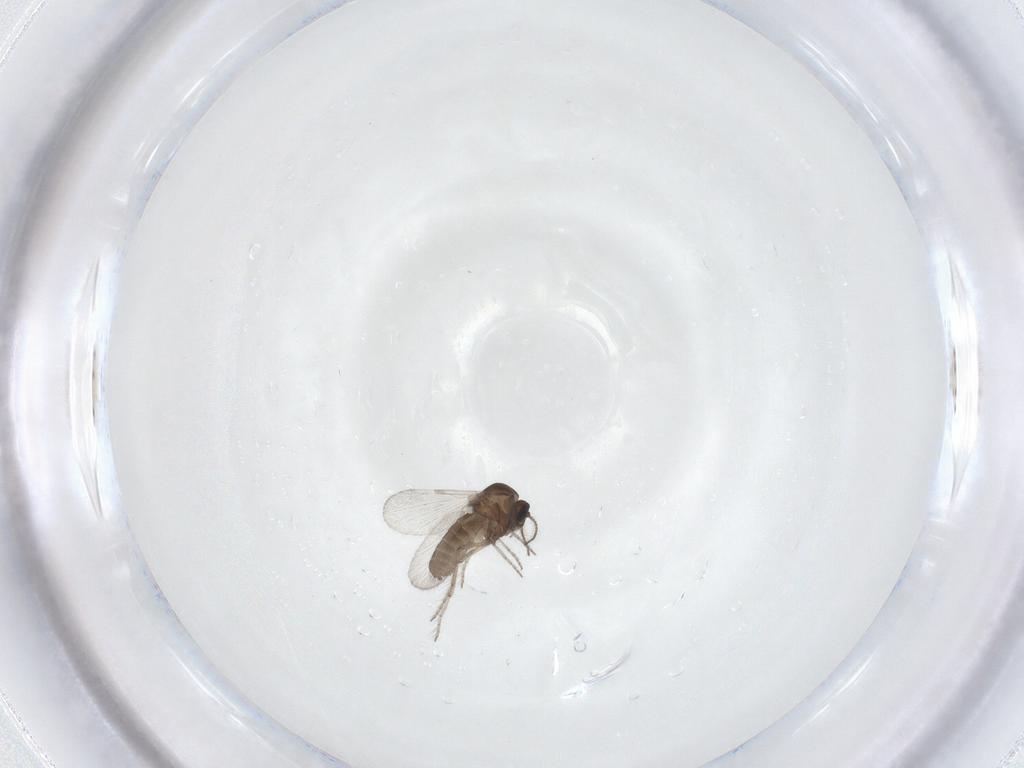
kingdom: Animalia
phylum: Arthropoda
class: Insecta
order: Diptera
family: Ceratopogonidae
